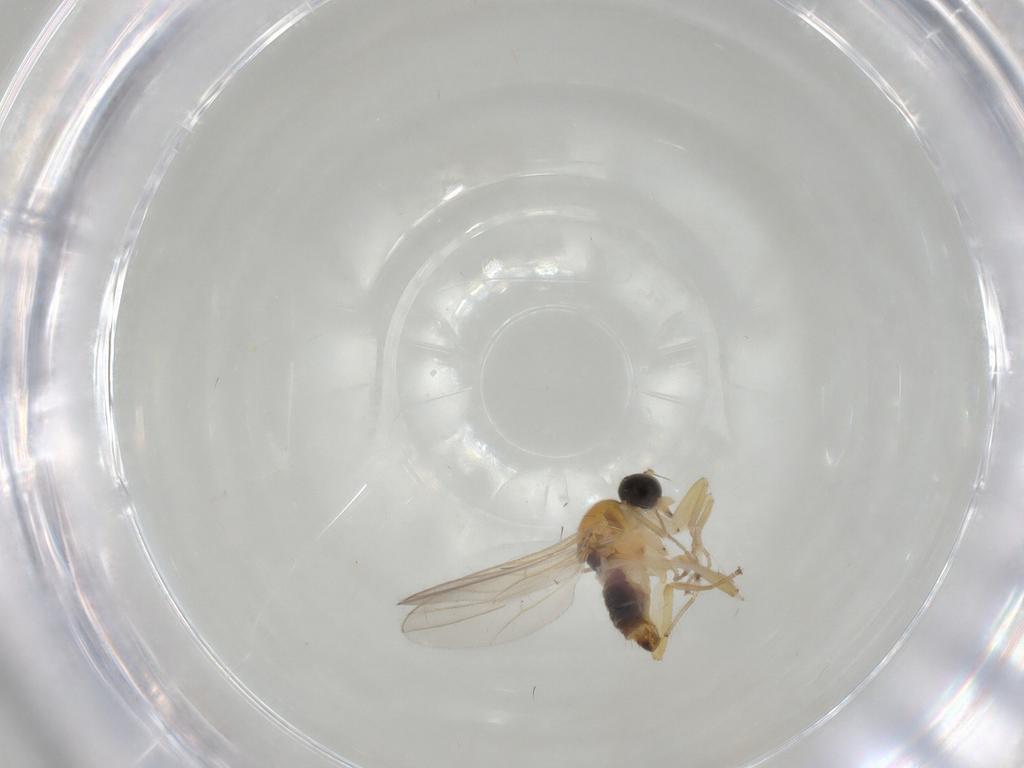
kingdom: Animalia
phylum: Arthropoda
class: Insecta
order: Diptera
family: Hybotidae
